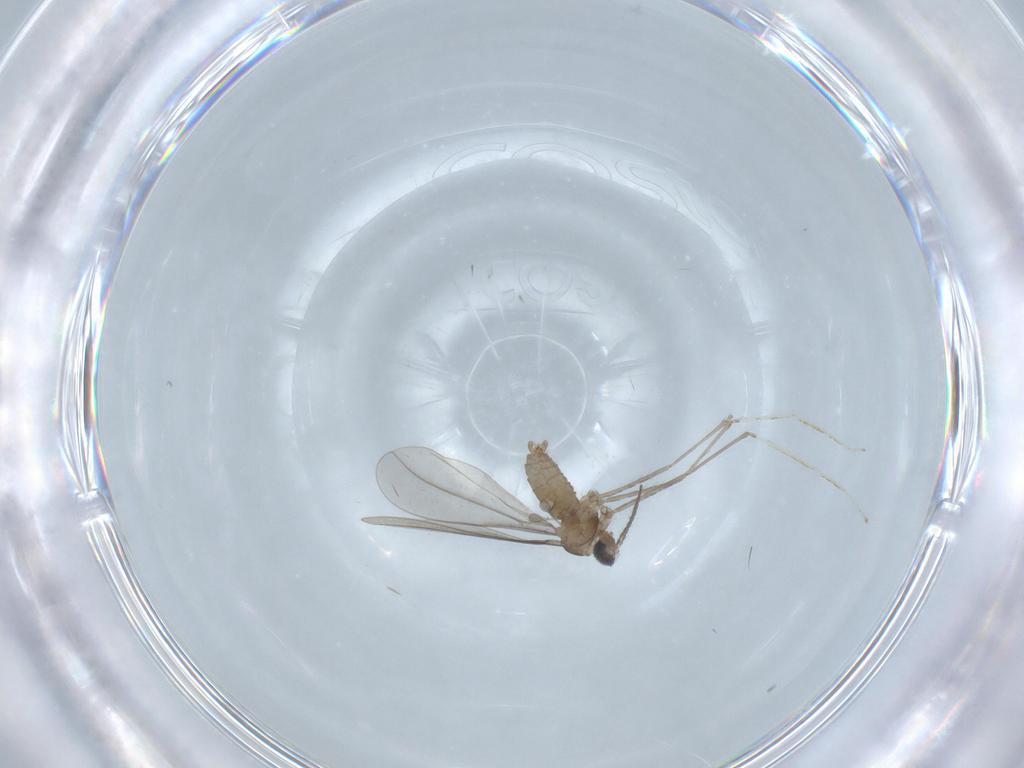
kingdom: Animalia
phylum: Arthropoda
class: Insecta
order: Diptera
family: Cecidomyiidae
